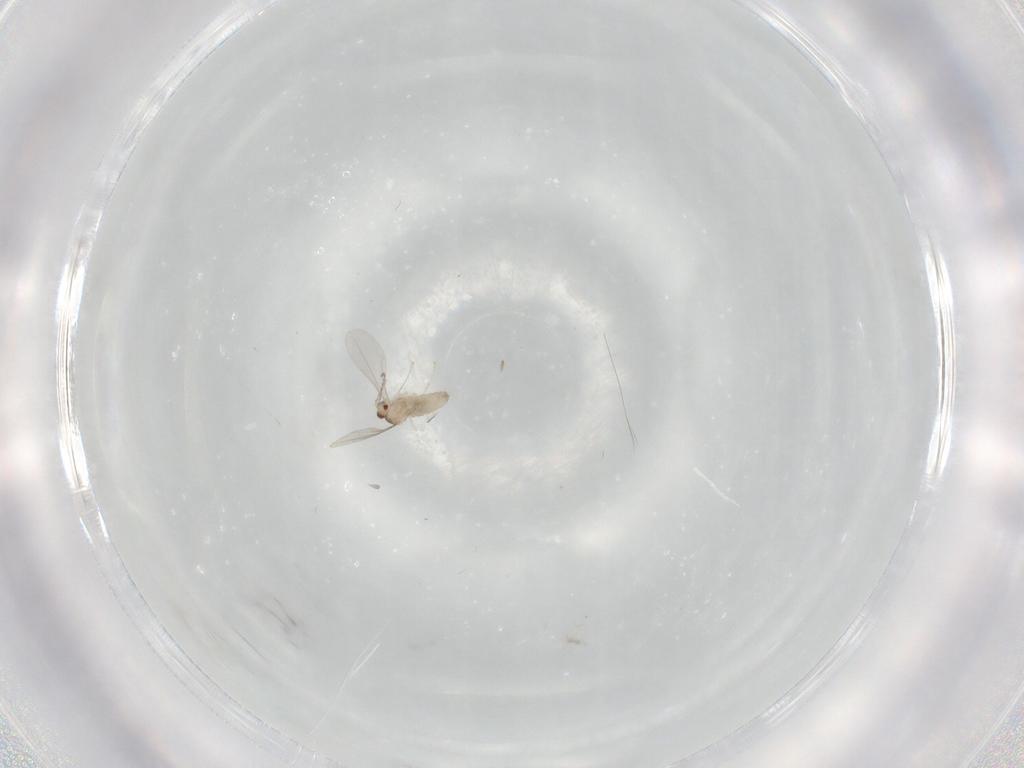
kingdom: Animalia
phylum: Arthropoda
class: Insecta
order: Diptera
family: Cecidomyiidae
